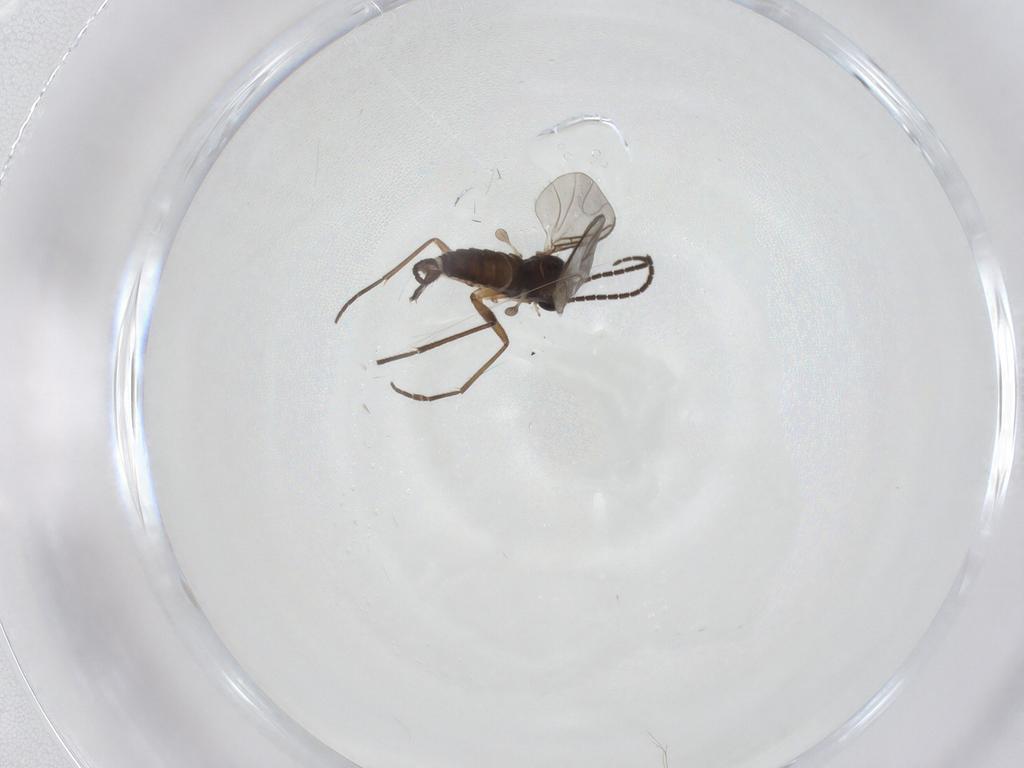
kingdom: Animalia
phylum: Arthropoda
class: Insecta
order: Diptera
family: Sciaridae
